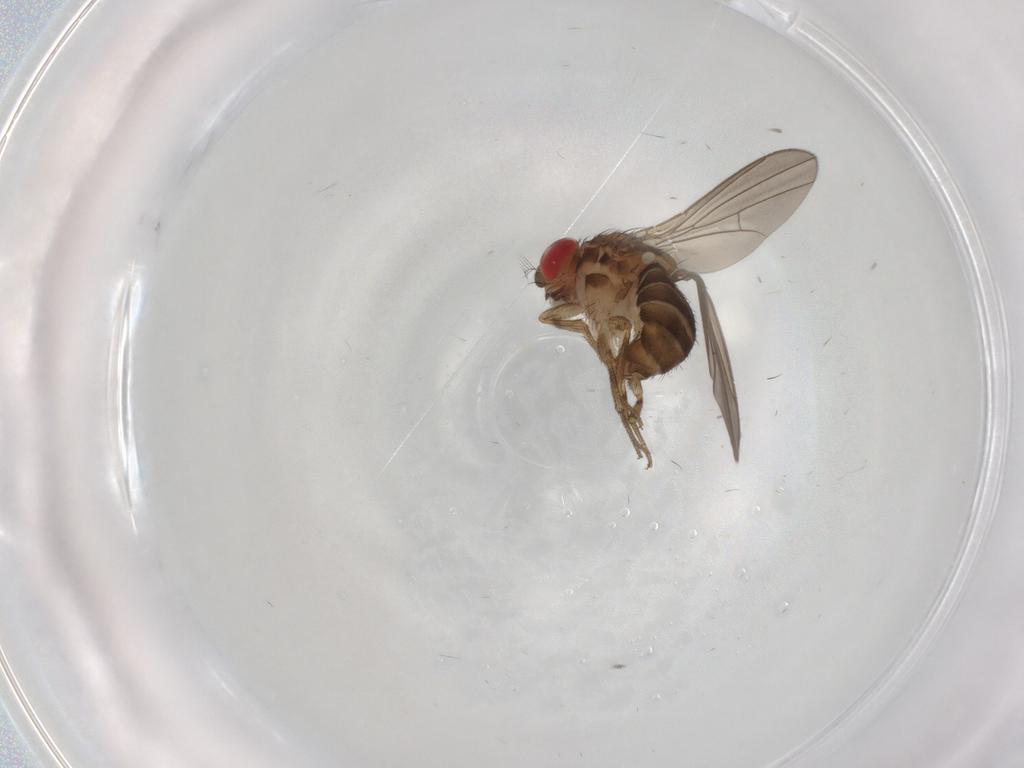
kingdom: Animalia
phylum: Arthropoda
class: Insecta
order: Diptera
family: Drosophilidae
